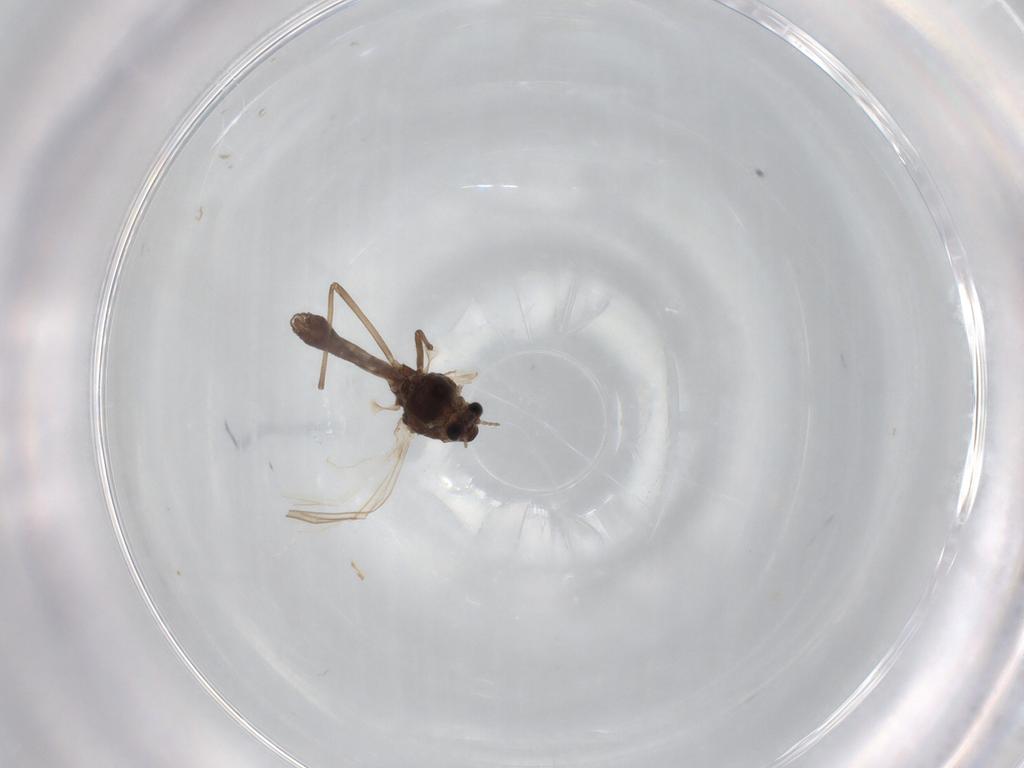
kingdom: Animalia
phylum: Arthropoda
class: Insecta
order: Diptera
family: Chironomidae
